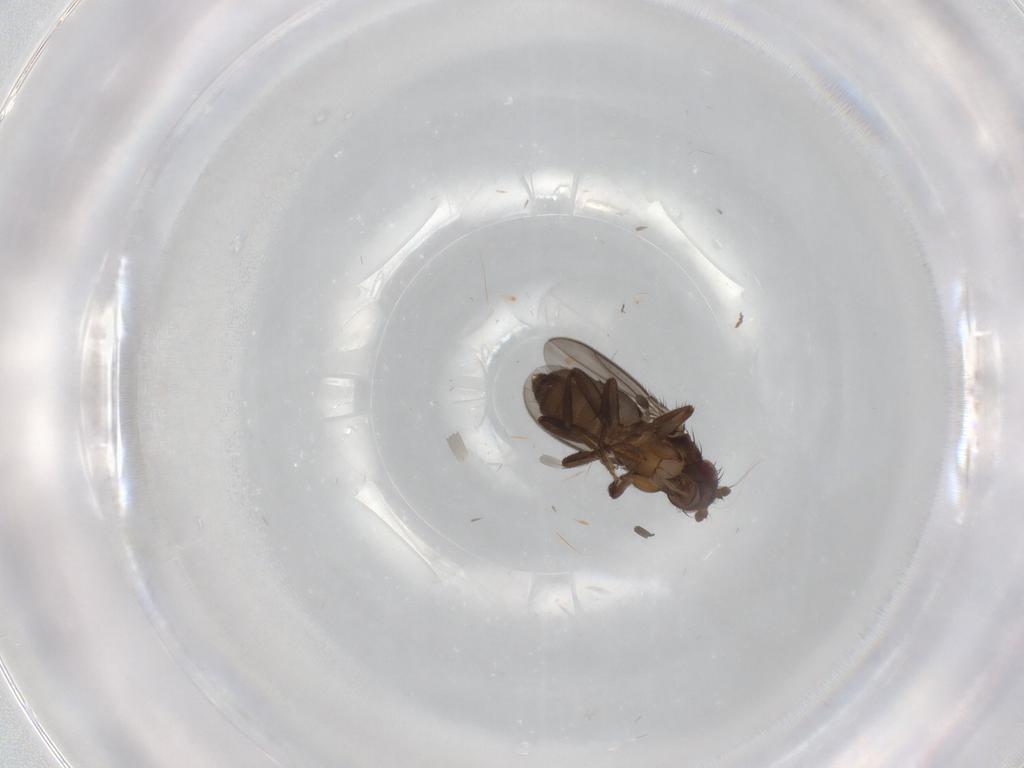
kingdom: Animalia
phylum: Arthropoda
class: Insecta
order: Diptera
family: Sphaeroceridae
